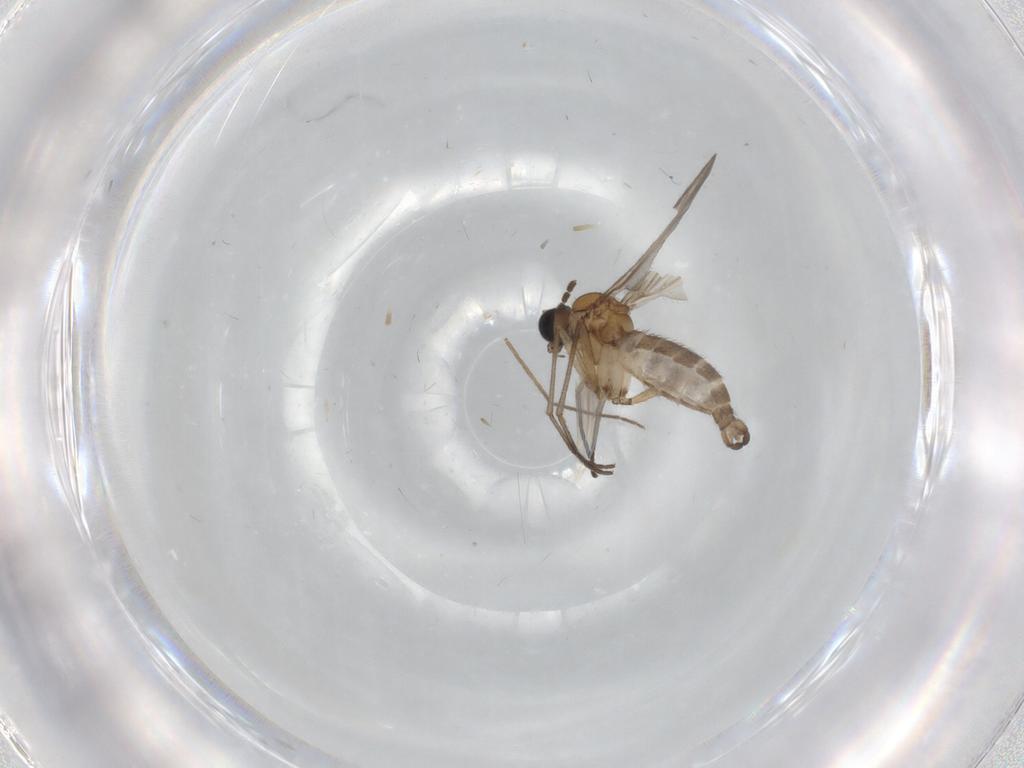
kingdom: Animalia
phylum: Arthropoda
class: Insecta
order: Diptera
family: Sciaridae
